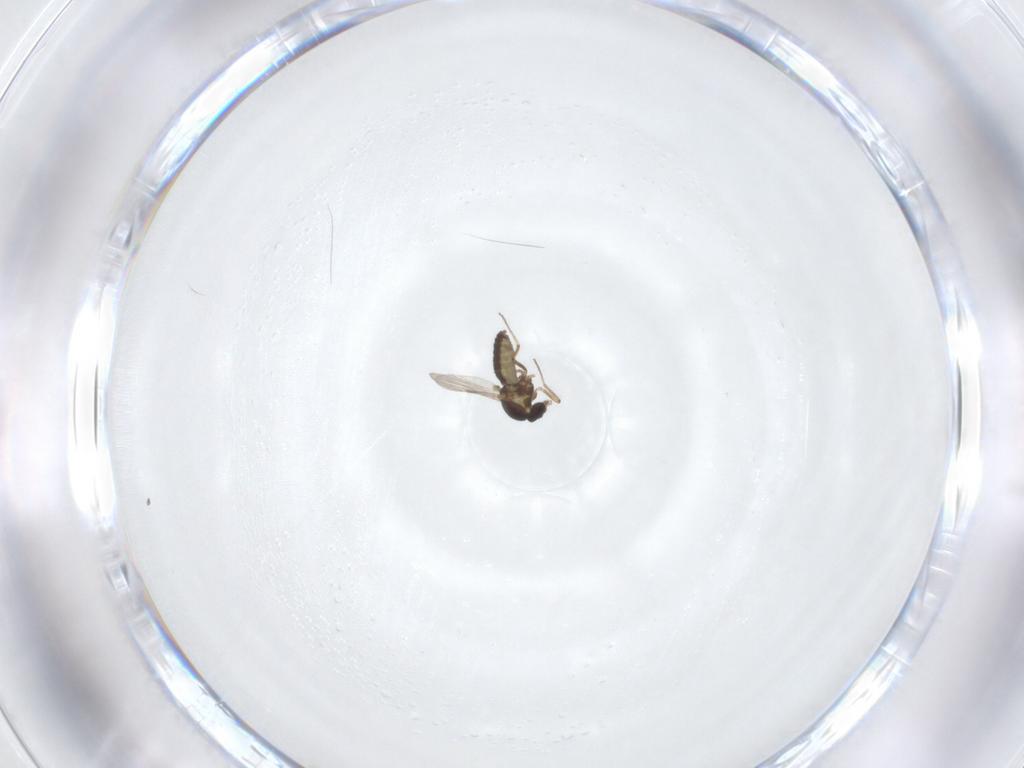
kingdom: Animalia
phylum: Arthropoda
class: Insecta
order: Diptera
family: Ceratopogonidae
